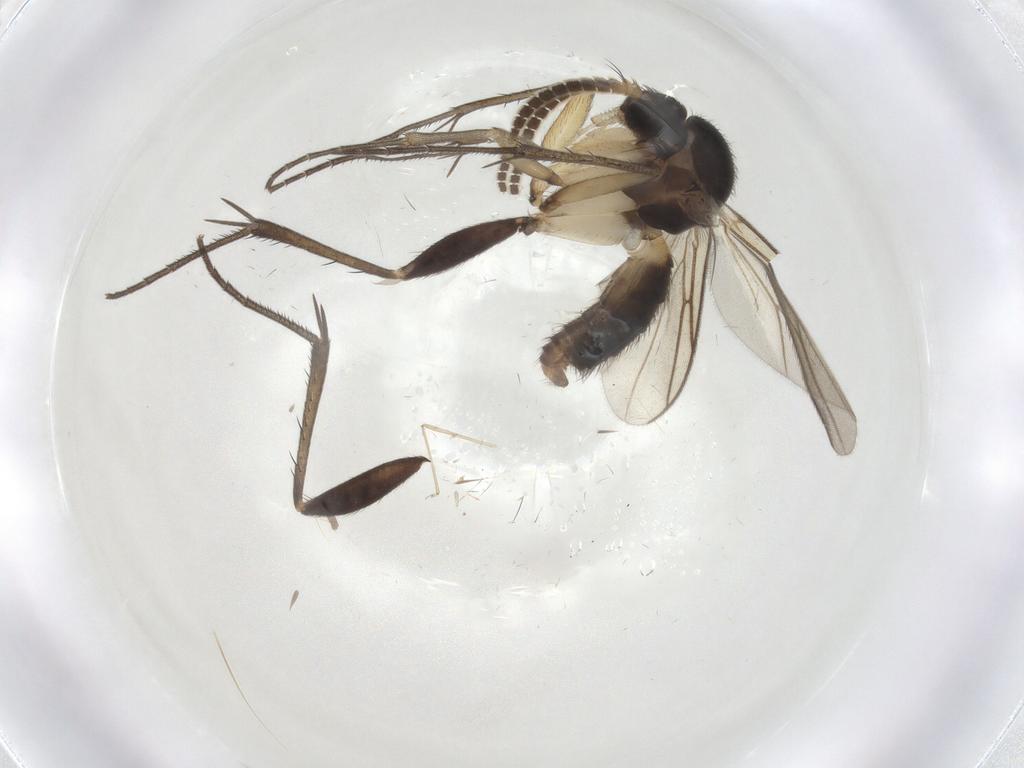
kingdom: Animalia
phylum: Arthropoda
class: Insecta
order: Diptera
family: Mycetophilidae
